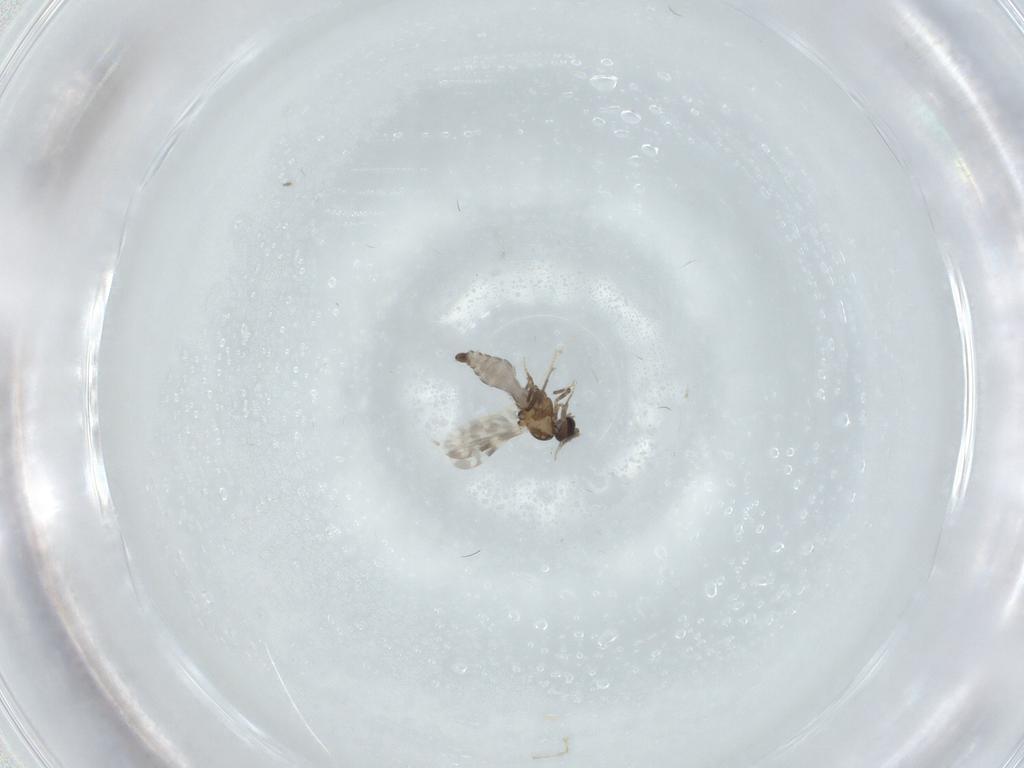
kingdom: Animalia
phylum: Arthropoda
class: Insecta
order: Diptera
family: Ceratopogonidae
